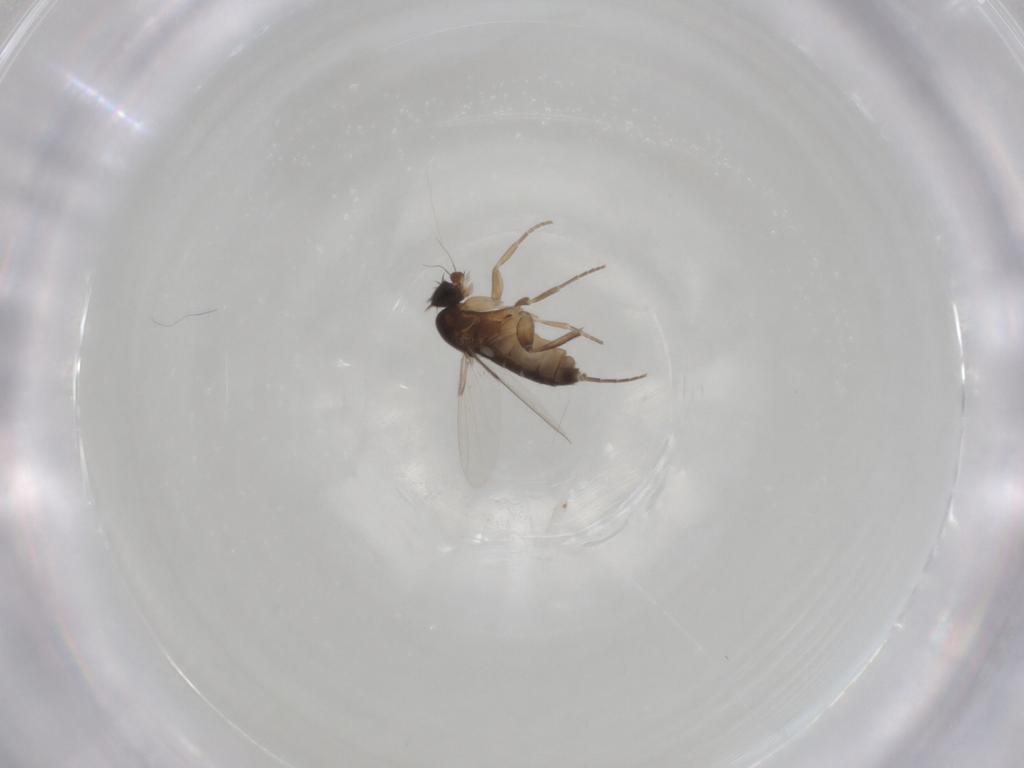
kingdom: Animalia
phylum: Arthropoda
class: Insecta
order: Diptera
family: Phoridae
